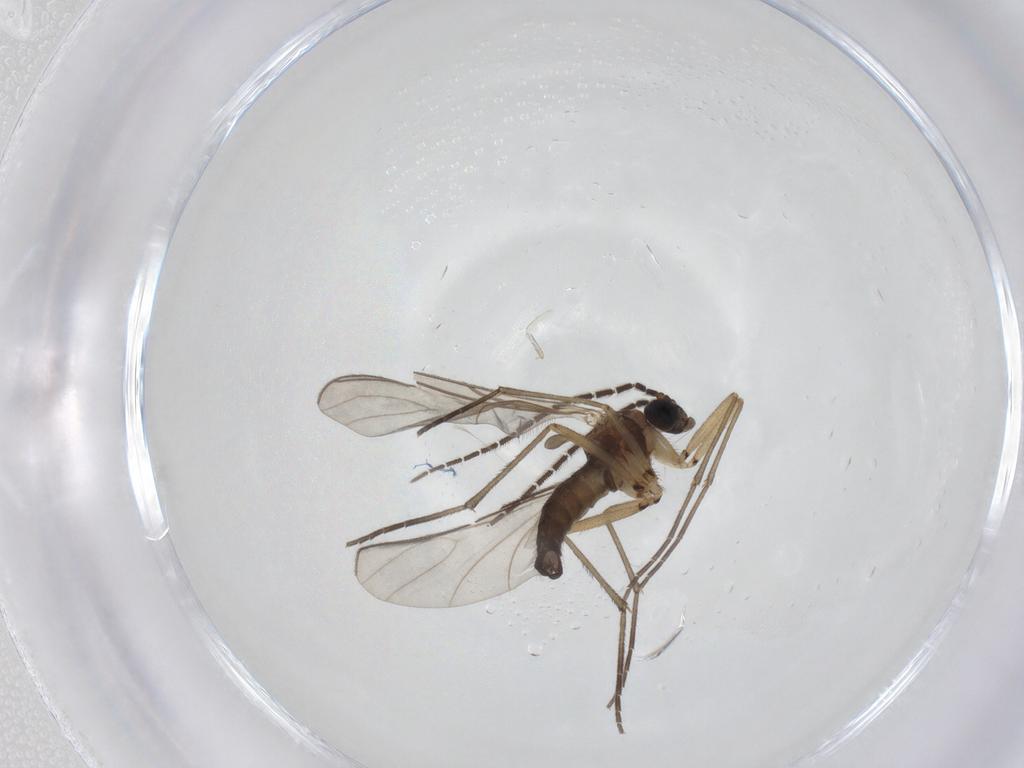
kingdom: Animalia
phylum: Arthropoda
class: Insecta
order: Diptera
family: Sciaridae
